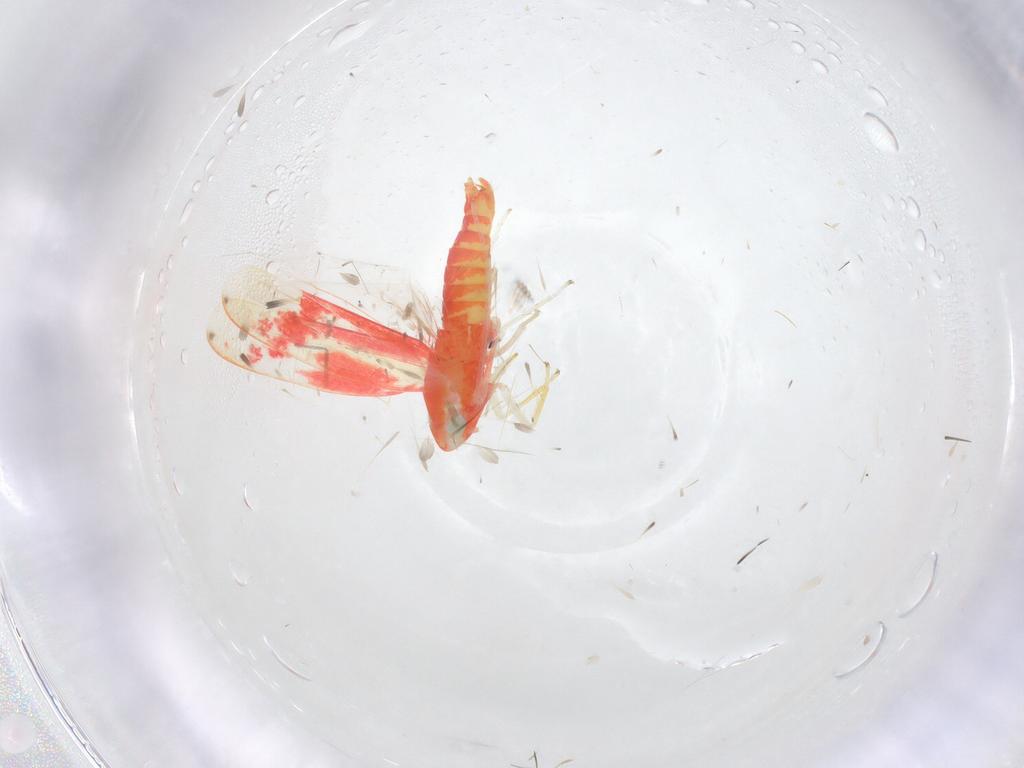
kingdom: Animalia
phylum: Arthropoda
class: Insecta
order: Hemiptera
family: Cicadellidae
